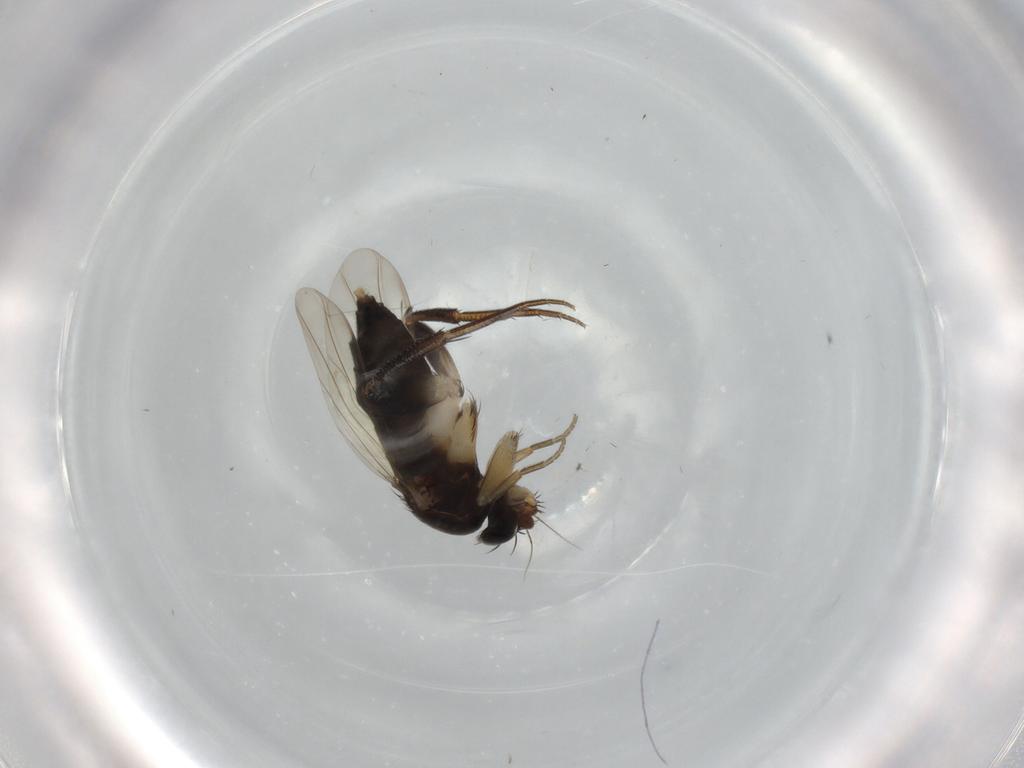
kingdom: Animalia
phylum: Arthropoda
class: Insecta
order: Diptera
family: Phoridae
